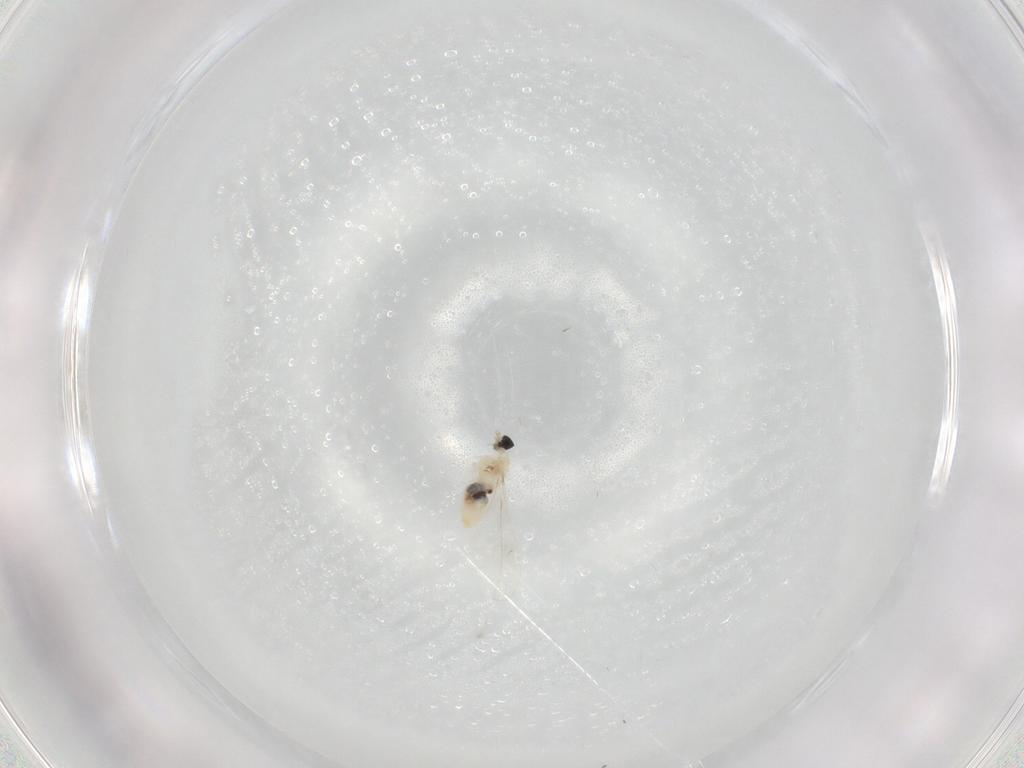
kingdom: Animalia
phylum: Arthropoda
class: Insecta
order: Diptera
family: Cecidomyiidae
